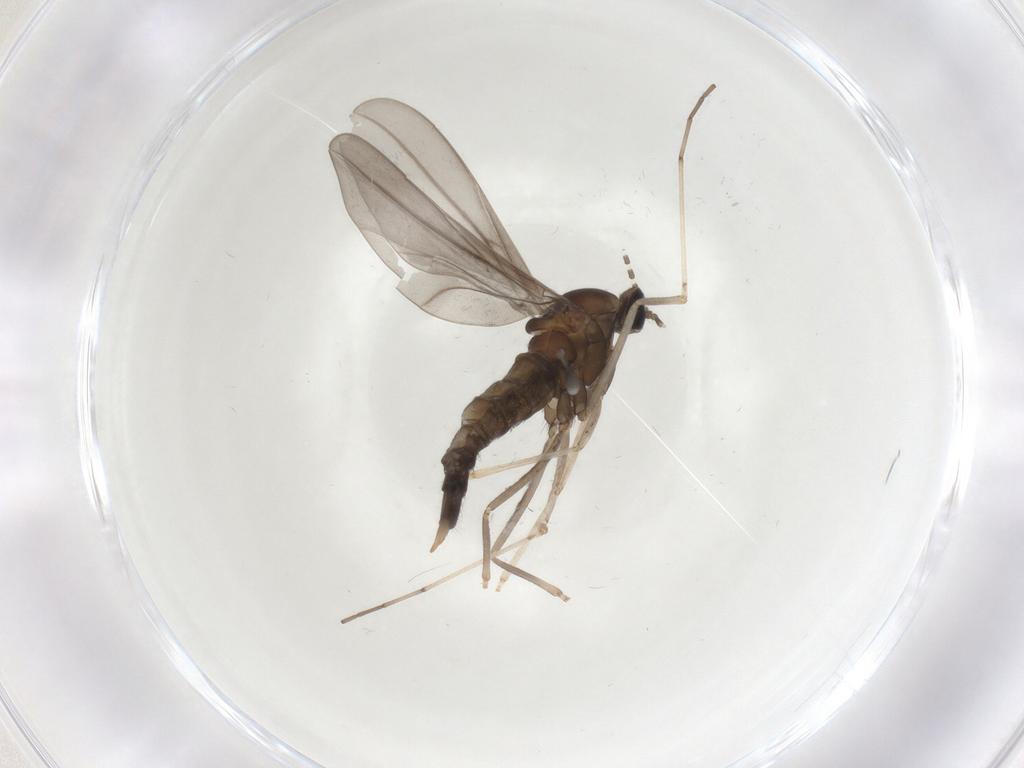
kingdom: Animalia
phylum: Arthropoda
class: Insecta
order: Diptera
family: Cecidomyiidae
